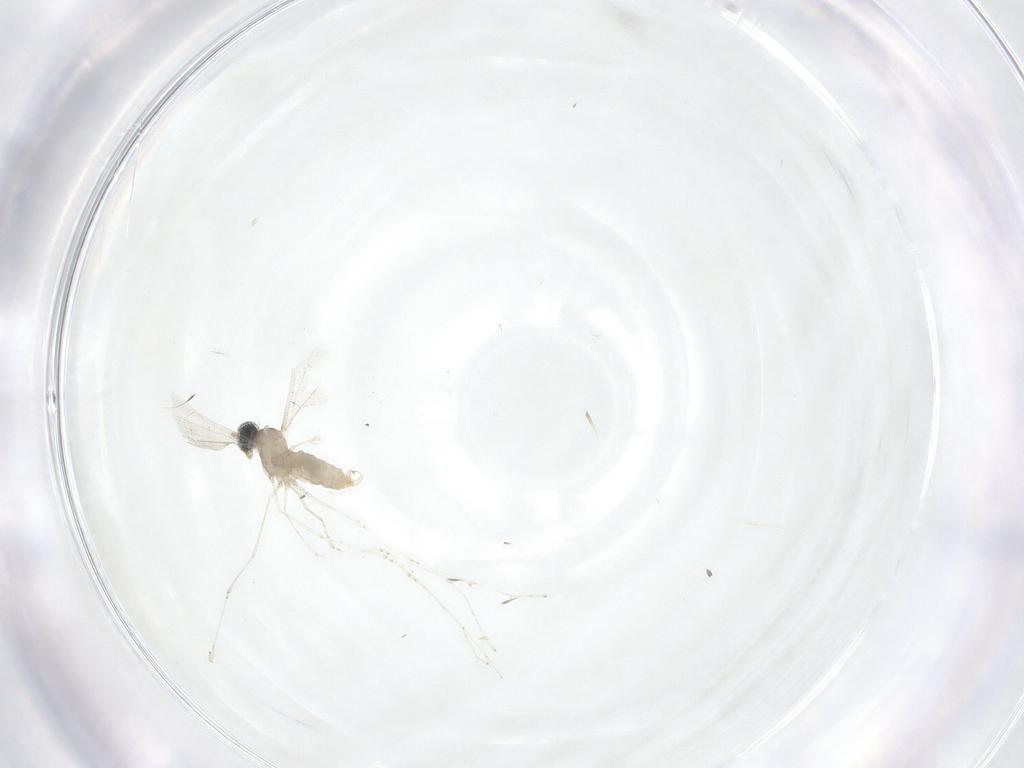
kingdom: Animalia
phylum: Arthropoda
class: Insecta
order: Diptera
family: Cecidomyiidae
